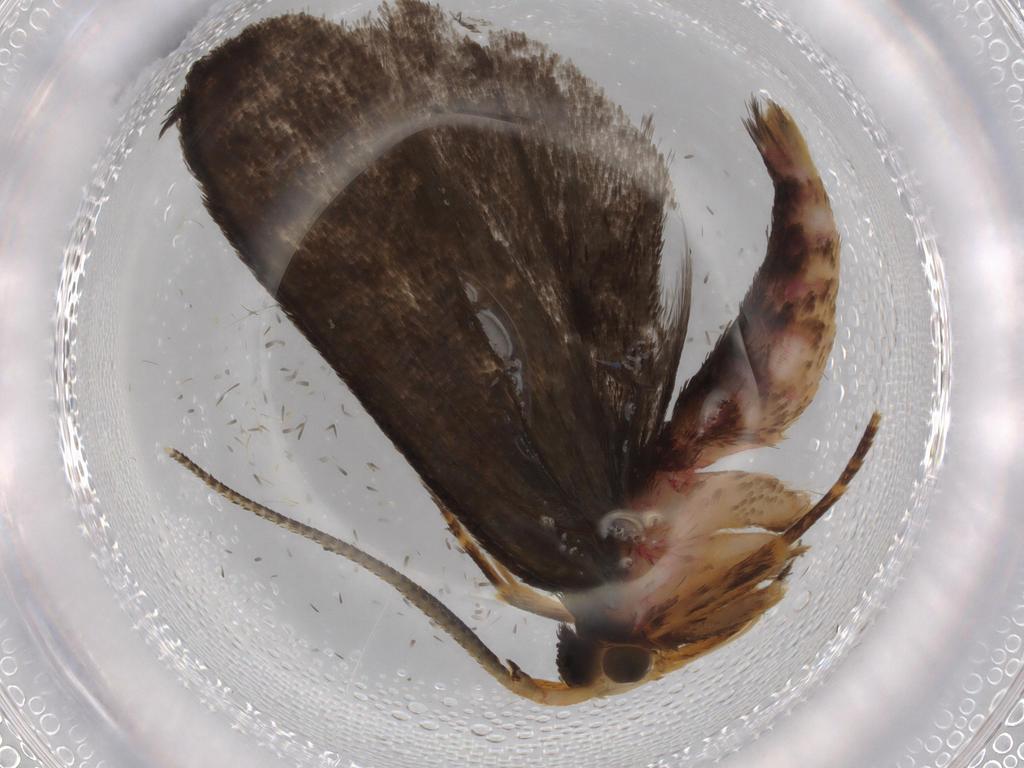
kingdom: Animalia
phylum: Arthropoda
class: Insecta
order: Lepidoptera
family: Autostichidae
